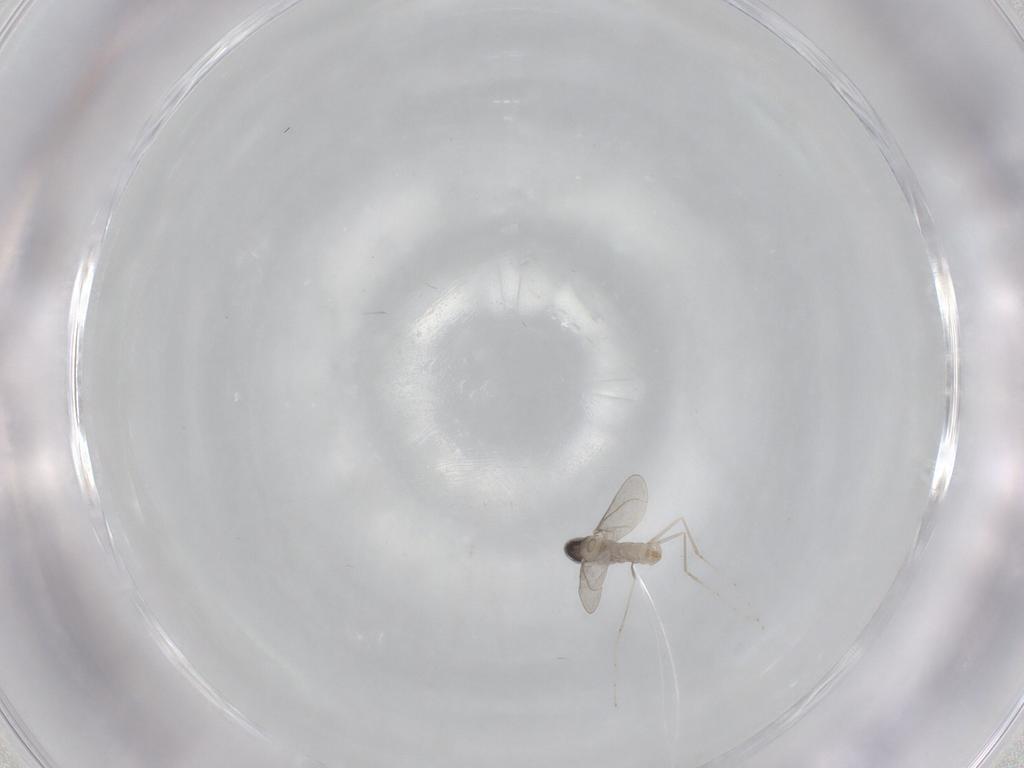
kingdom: Animalia
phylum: Arthropoda
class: Insecta
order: Diptera
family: Cecidomyiidae
